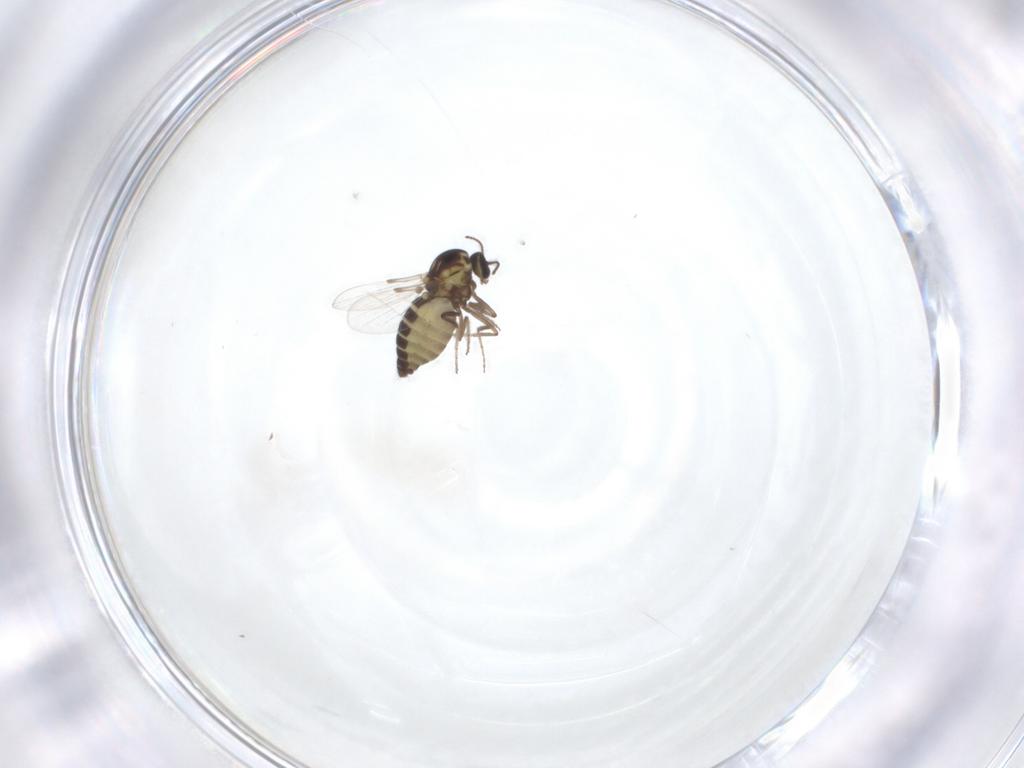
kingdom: Animalia
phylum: Arthropoda
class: Insecta
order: Diptera
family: Ceratopogonidae
